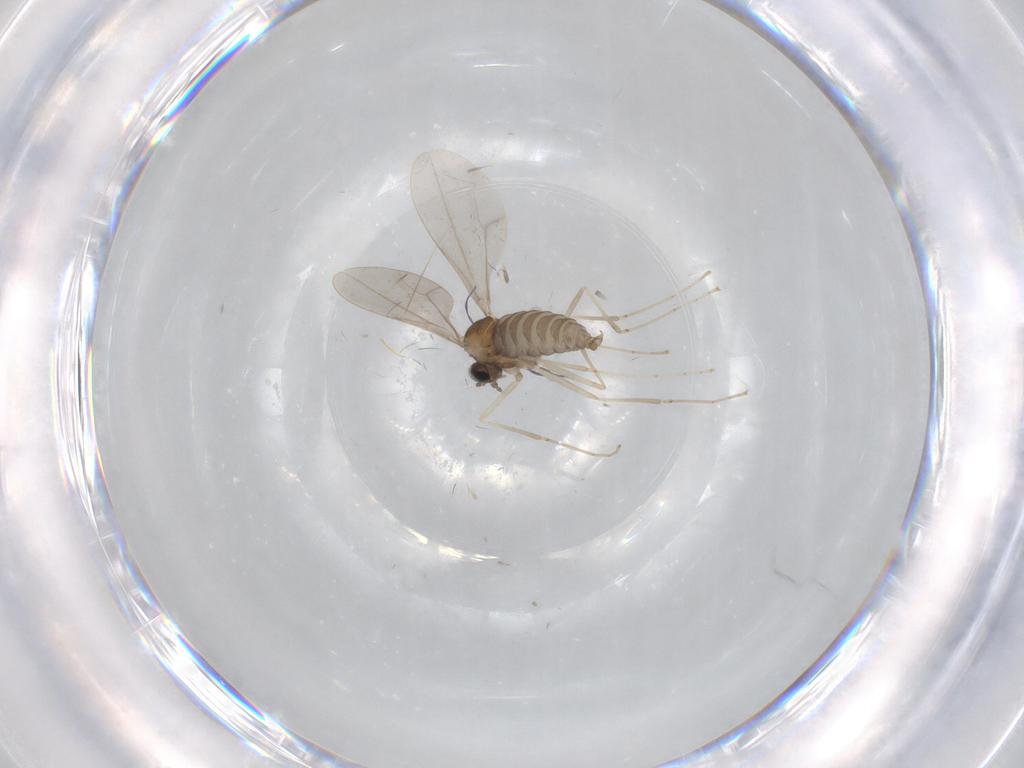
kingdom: Animalia
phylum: Arthropoda
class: Insecta
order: Diptera
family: Cecidomyiidae
